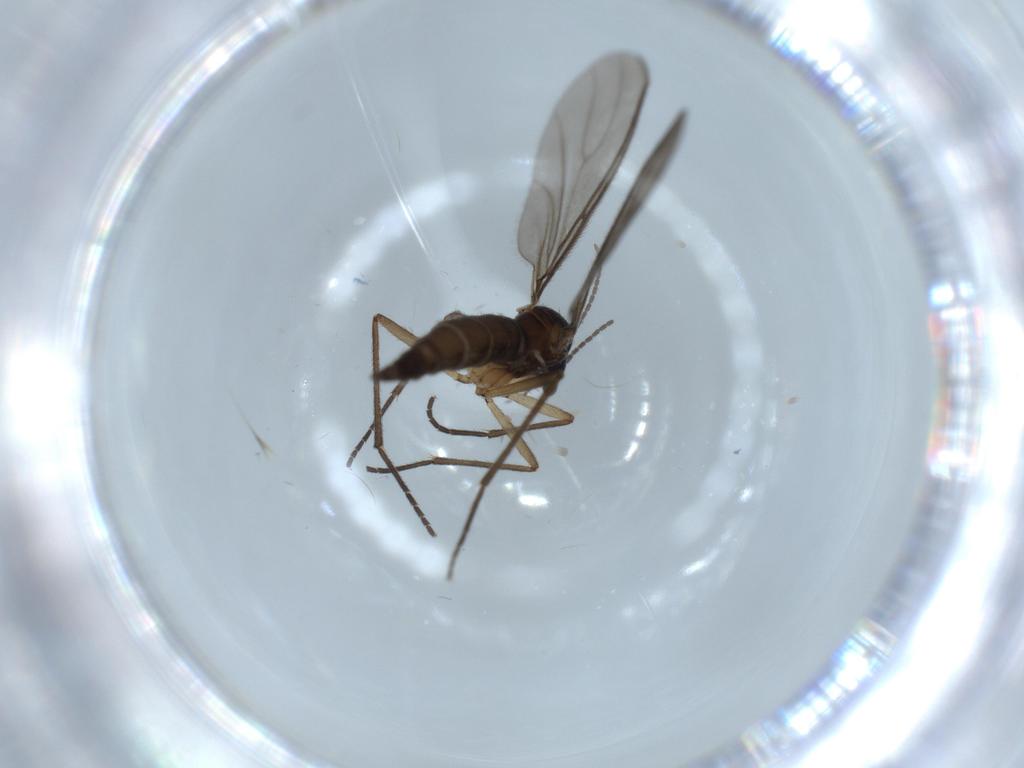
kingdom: Animalia
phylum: Arthropoda
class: Insecta
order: Diptera
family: Sciaridae
